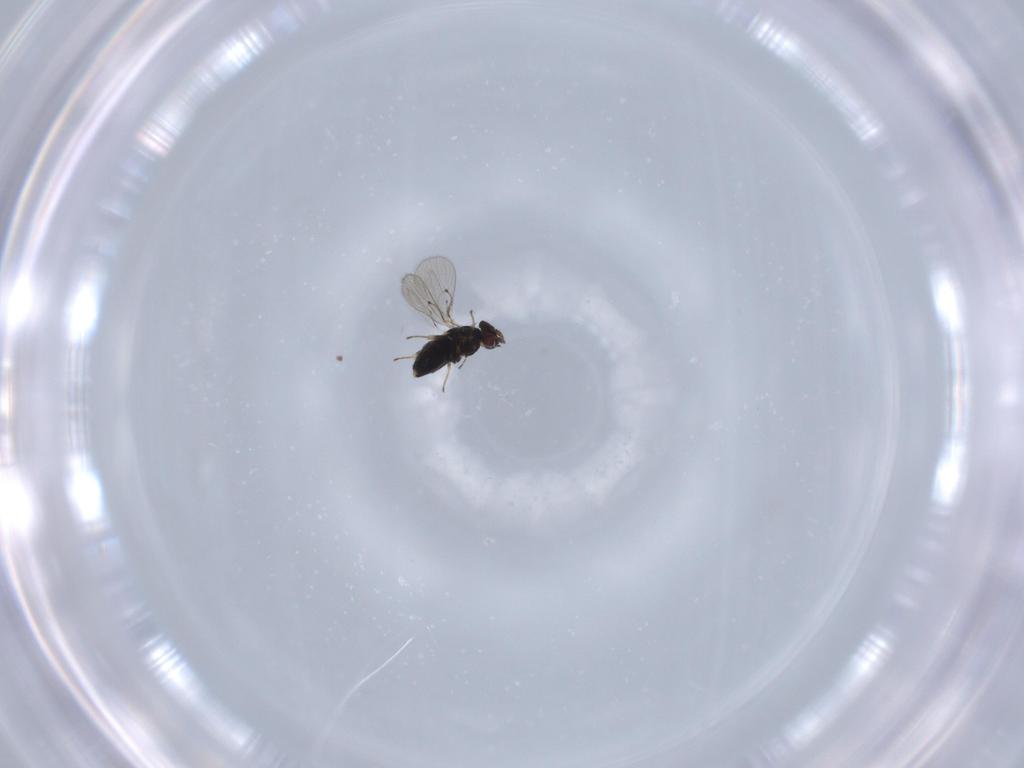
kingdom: Animalia
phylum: Arthropoda
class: Insecta
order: Hymenoptera
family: Trichogrammatidae
